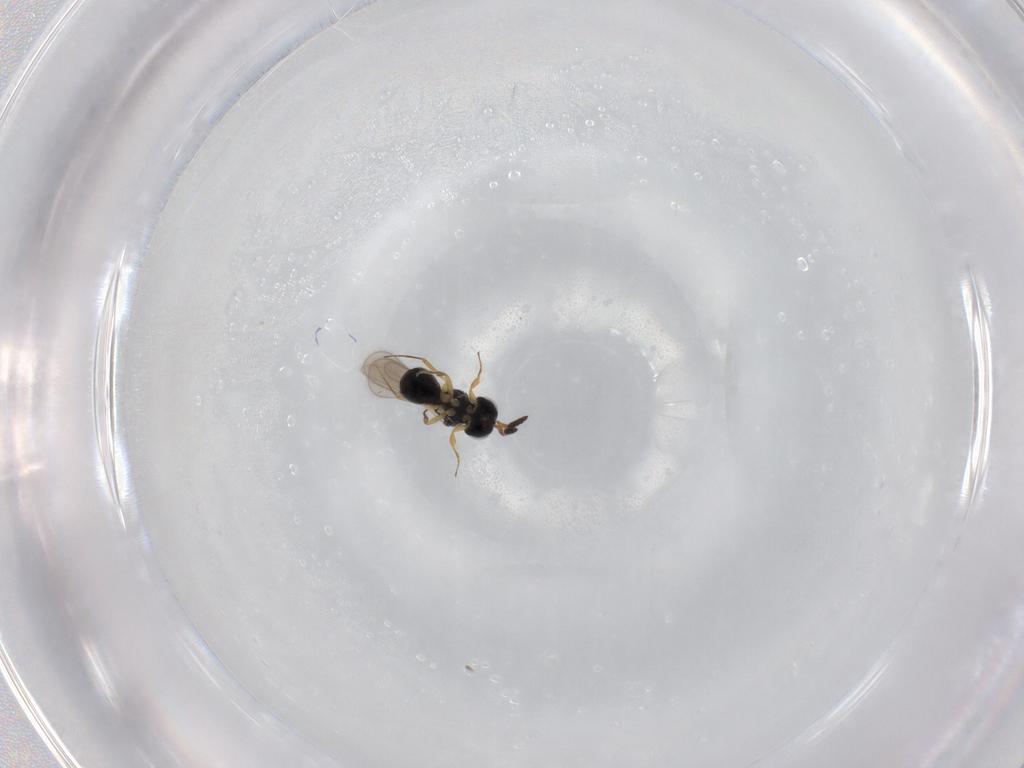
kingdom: Animalia
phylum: Arthropoda
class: Insecta
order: Hymenoptera
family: Scelionidae
